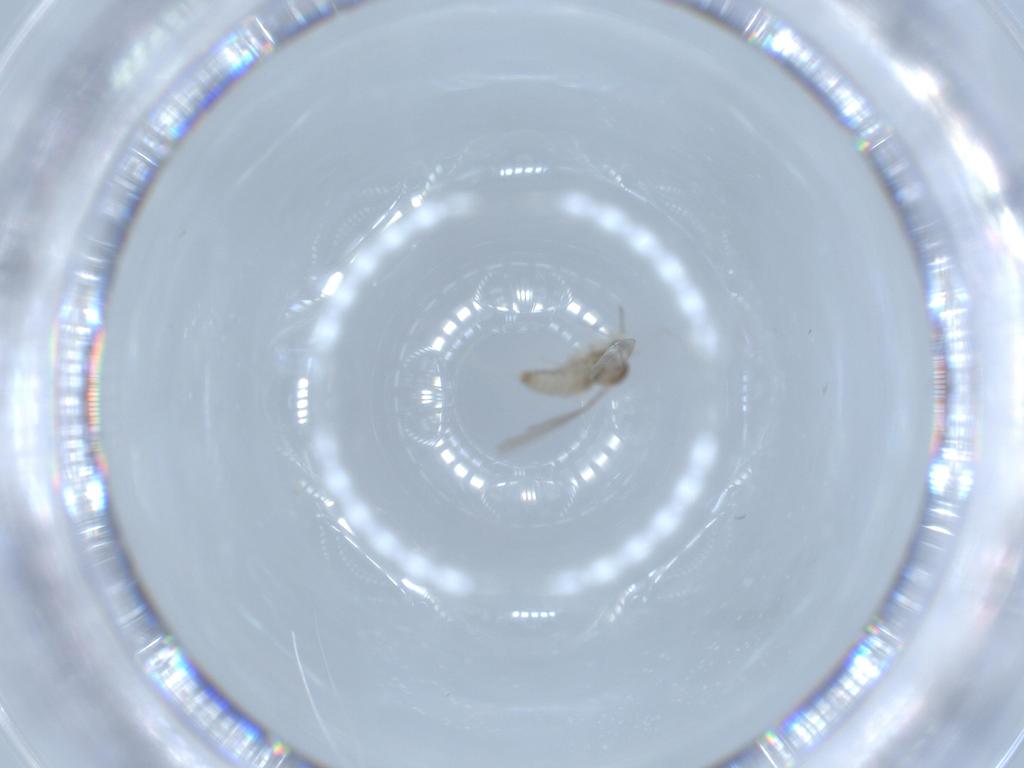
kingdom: Animalia
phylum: Arthropoda
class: Insecta
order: Diptera
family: Cecidomyiidae
